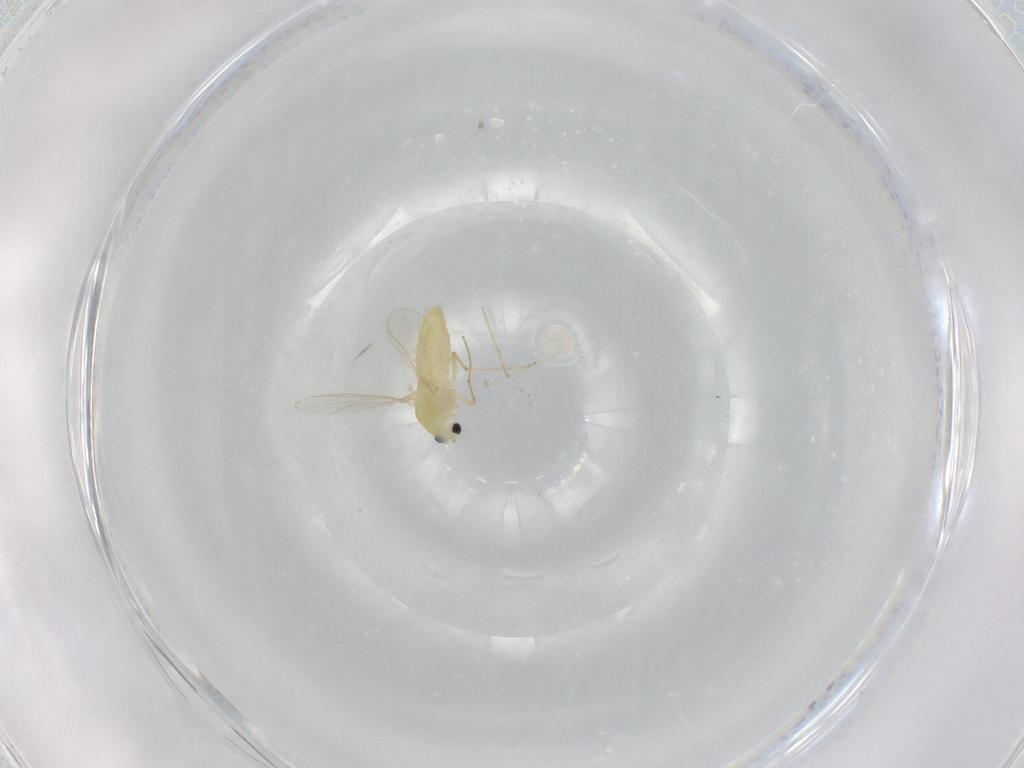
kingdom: Animalia
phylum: Arthropoda
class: Insecta
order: Diptera
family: Chironomidae
